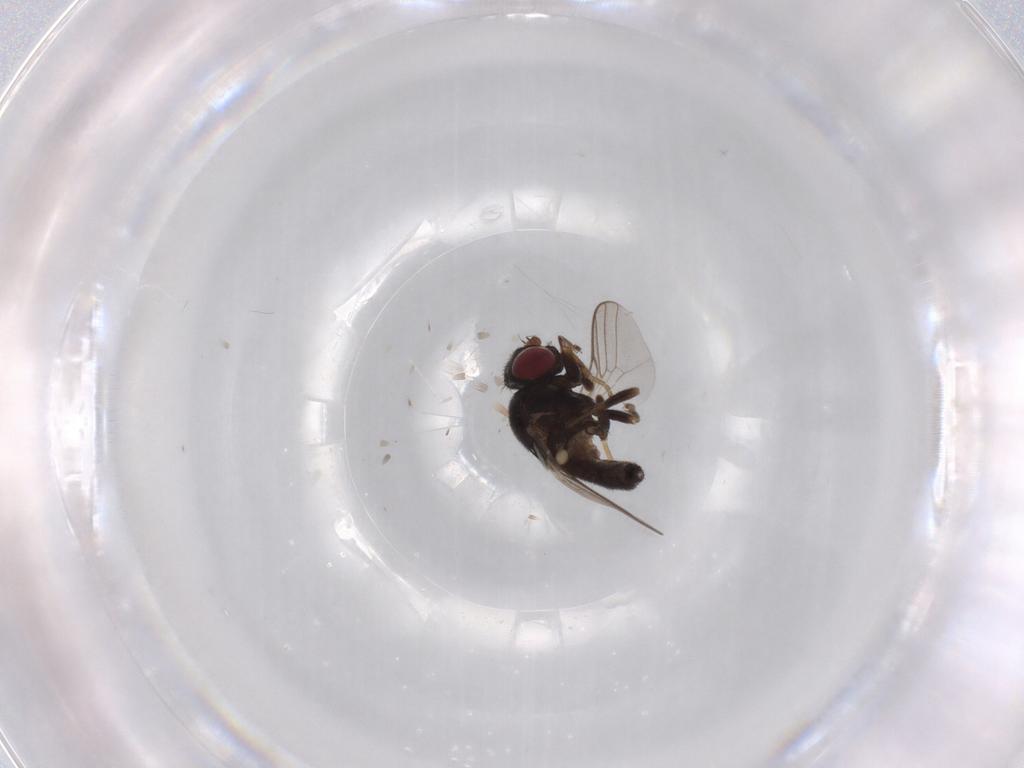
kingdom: Animalia
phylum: Arthropoda
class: Insecta
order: Diptera
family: Chloropidae
